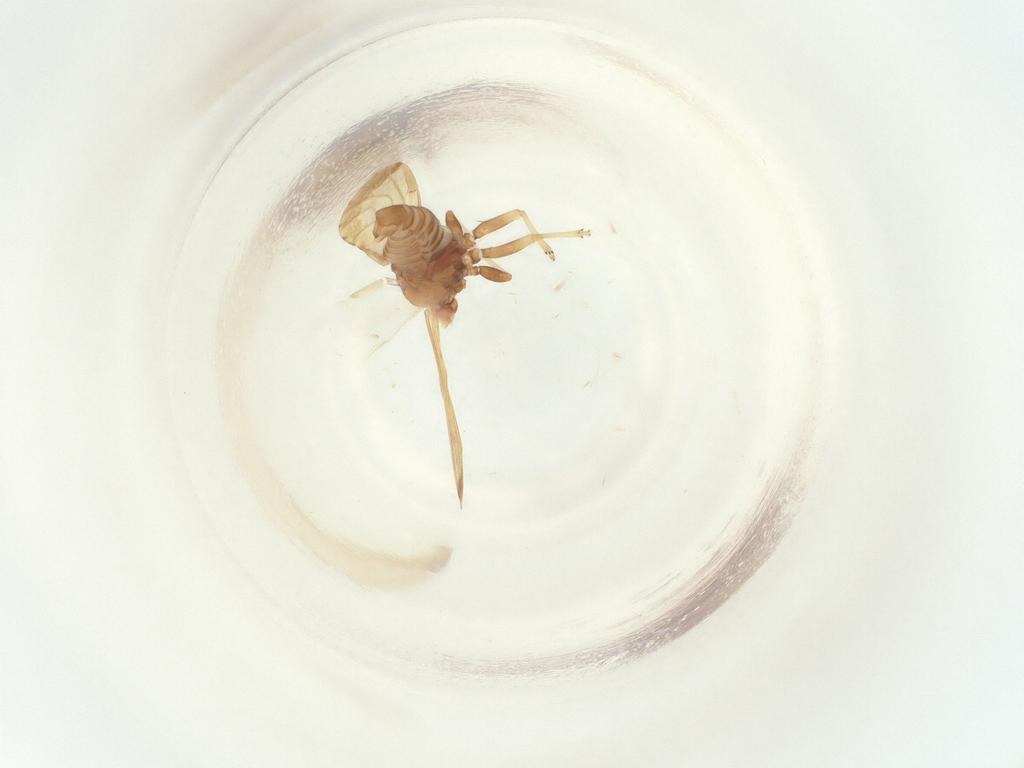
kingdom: Animalia
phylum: Arthropoda
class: Insecta
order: Hemiptera
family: Psyllidae
